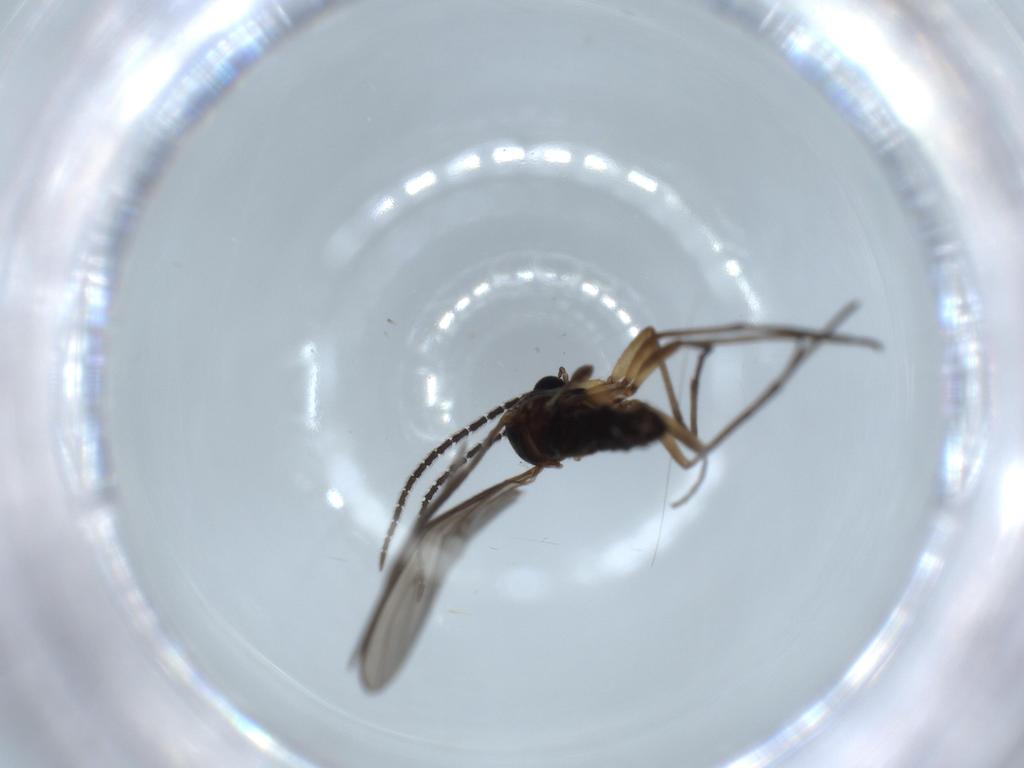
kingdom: Animalia
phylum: Arthropoda
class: Insecta
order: Diptera
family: Sciaridae
